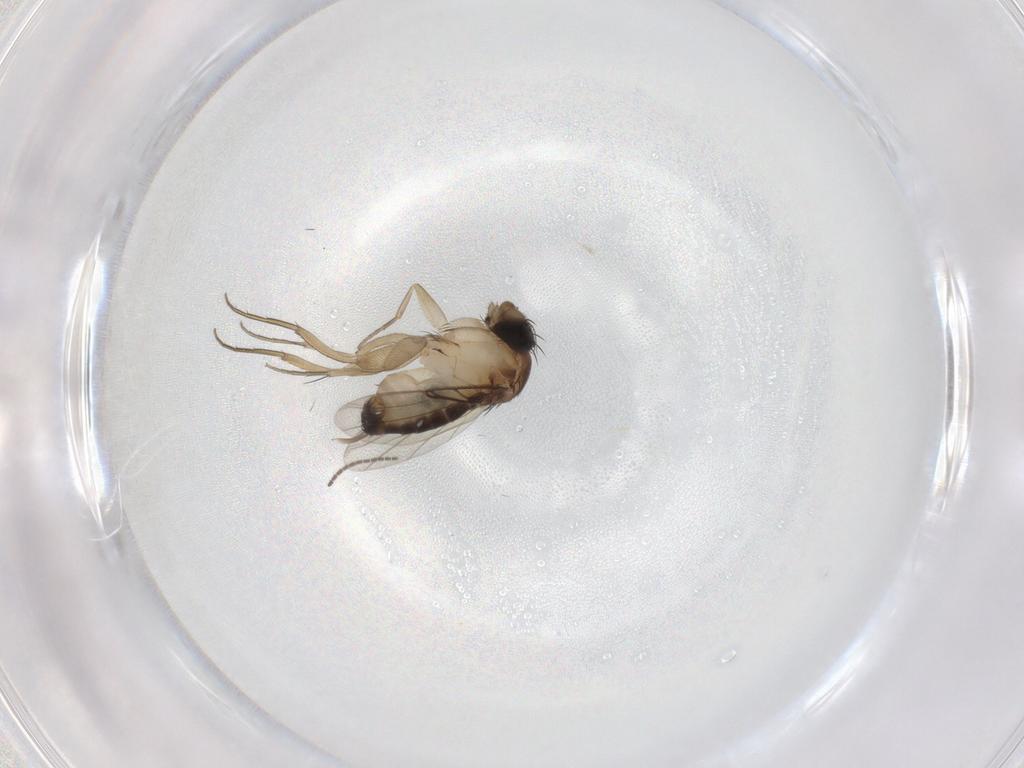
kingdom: Animalia
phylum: Arthropoda
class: Insecta
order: Diptera
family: Phoridae
